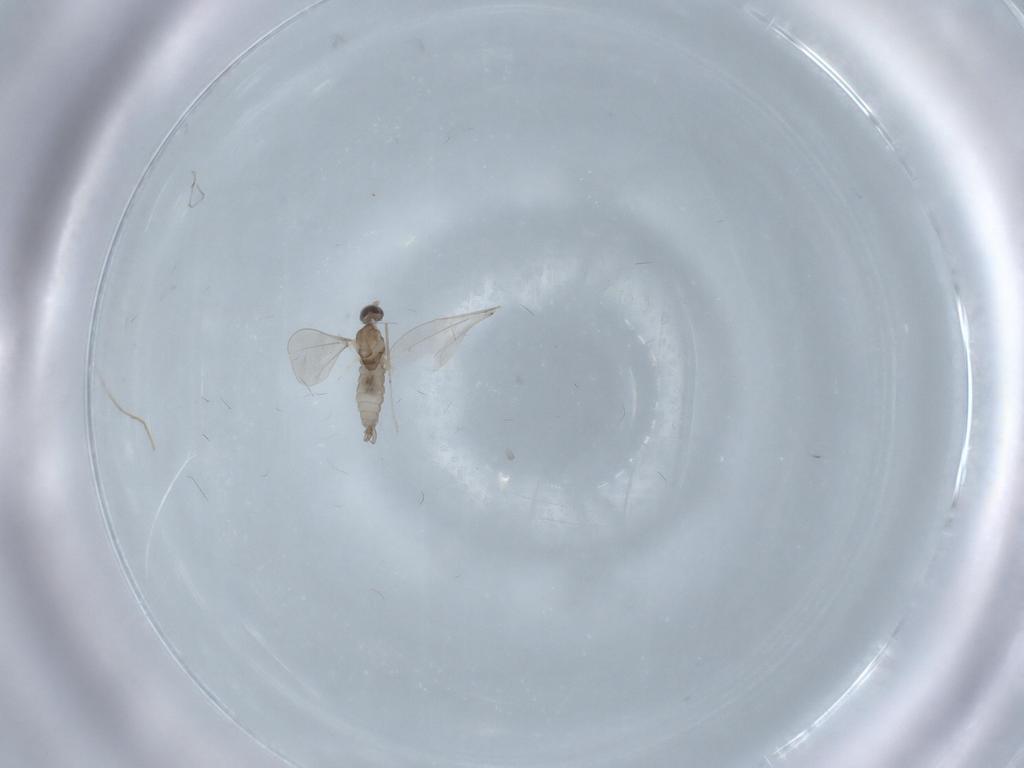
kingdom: Animalia
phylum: Arthropoda
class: Insecta
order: Diptera
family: Cecidomyiidae
